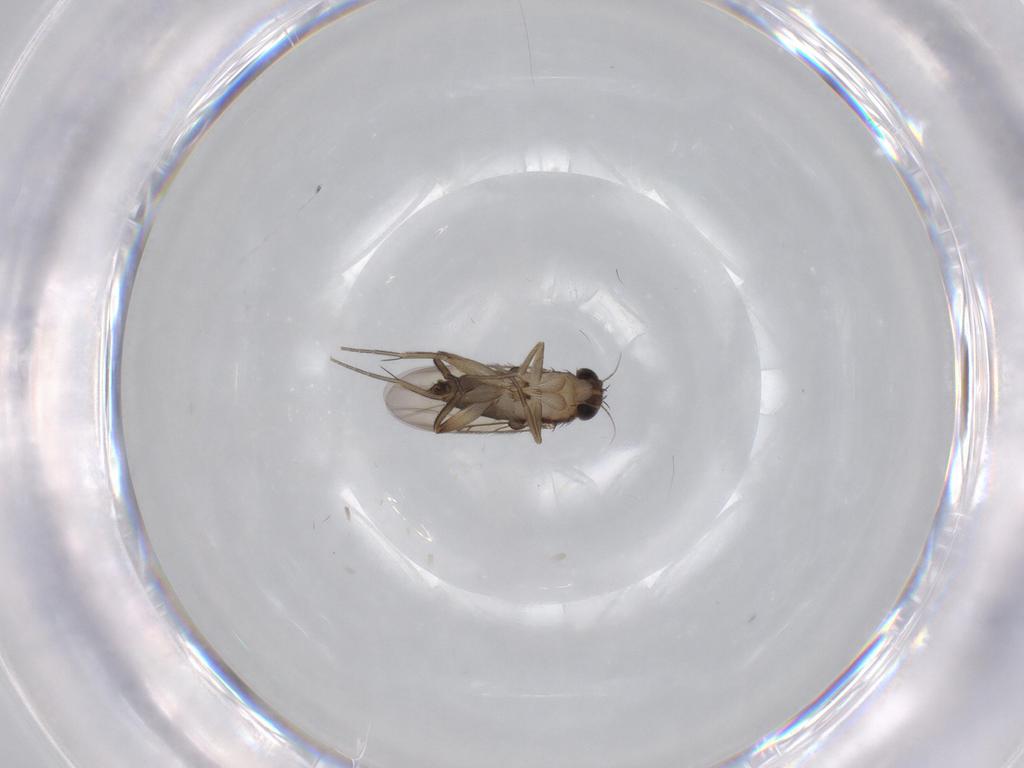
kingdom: Animalia
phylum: Arthropoda
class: Insecta
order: Diptera
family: Phoridae
